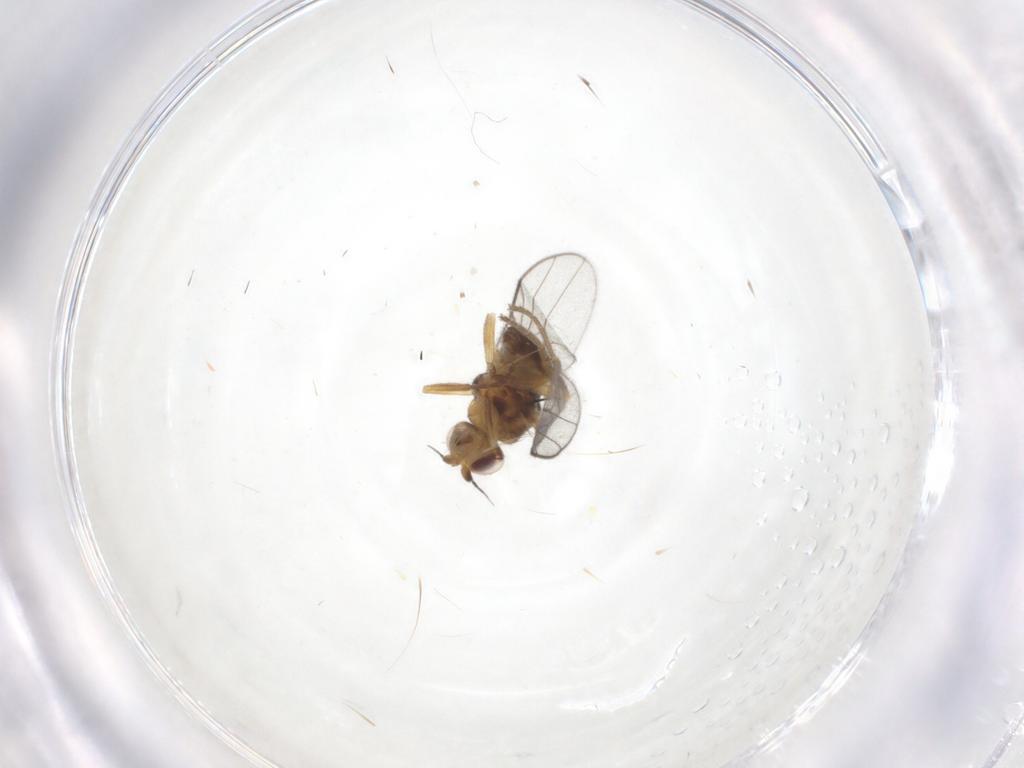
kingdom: Animalia
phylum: Arthropoda
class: Insecta
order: Diptera
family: Chloropidae
